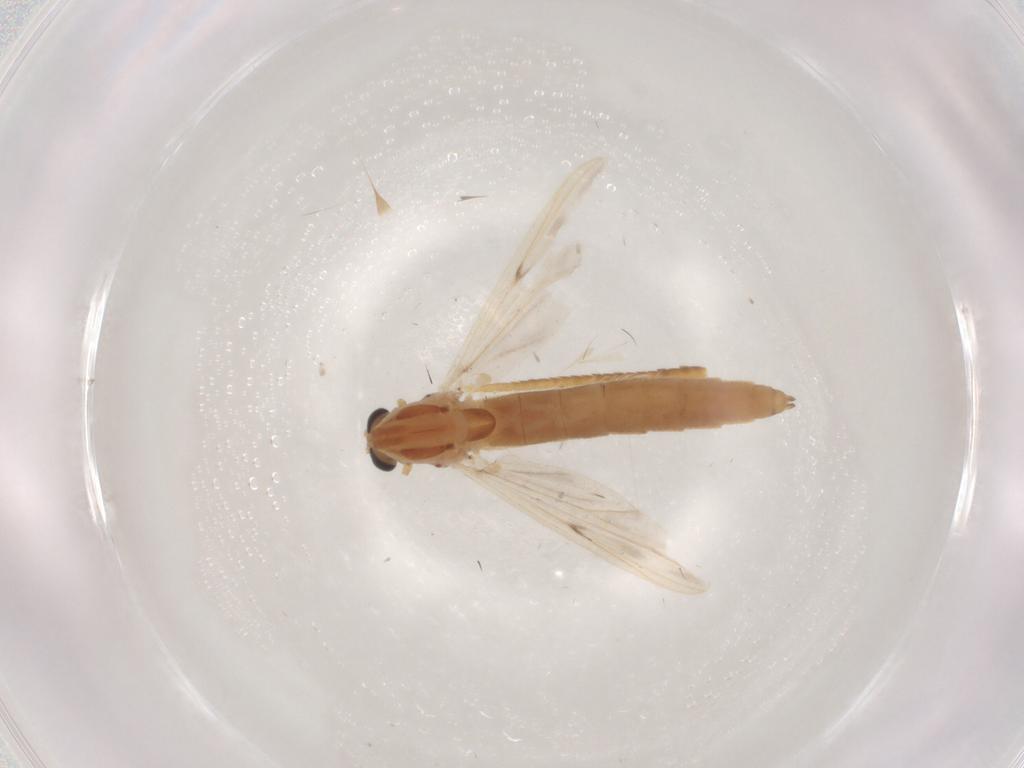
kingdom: Animalia
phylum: Arthropoda
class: Insecta
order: Diptera
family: Chironomidae
